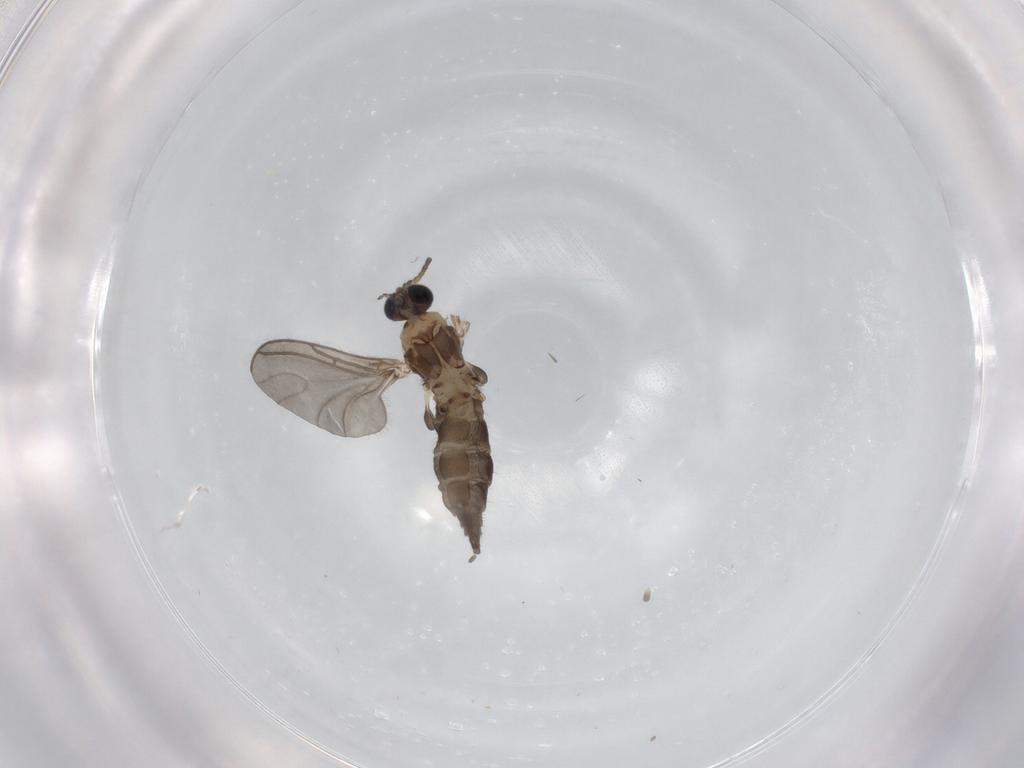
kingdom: Animalia
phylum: Arthropoda
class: Insecta
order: Diptera
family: Sciaridae
